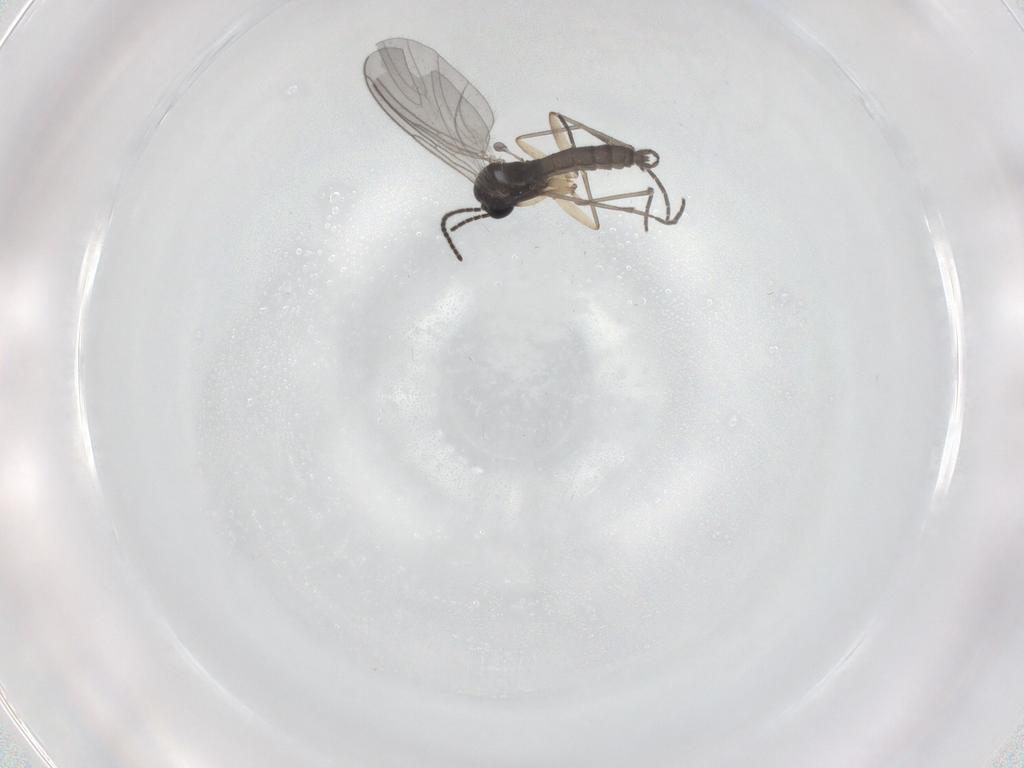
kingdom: Animalia
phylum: Arthropoda
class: Insecta
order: Diptera
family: Sciaridae
